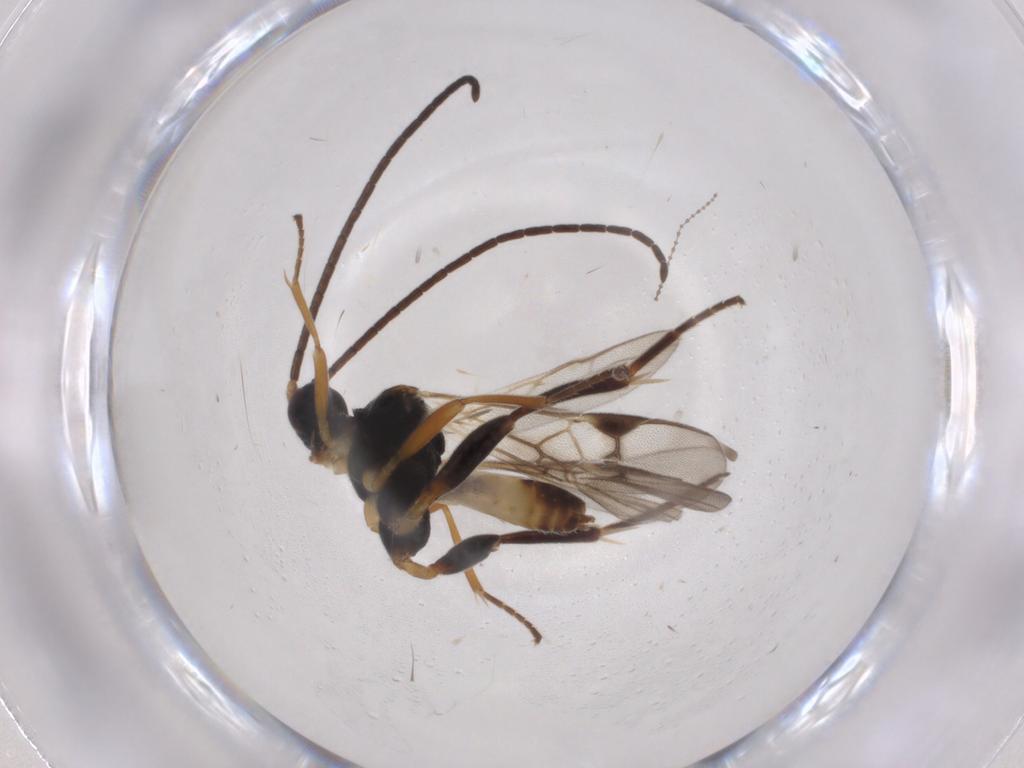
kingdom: Animalia
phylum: Arthropoda
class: Insecta
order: Hymenoptera
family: Braconidae
